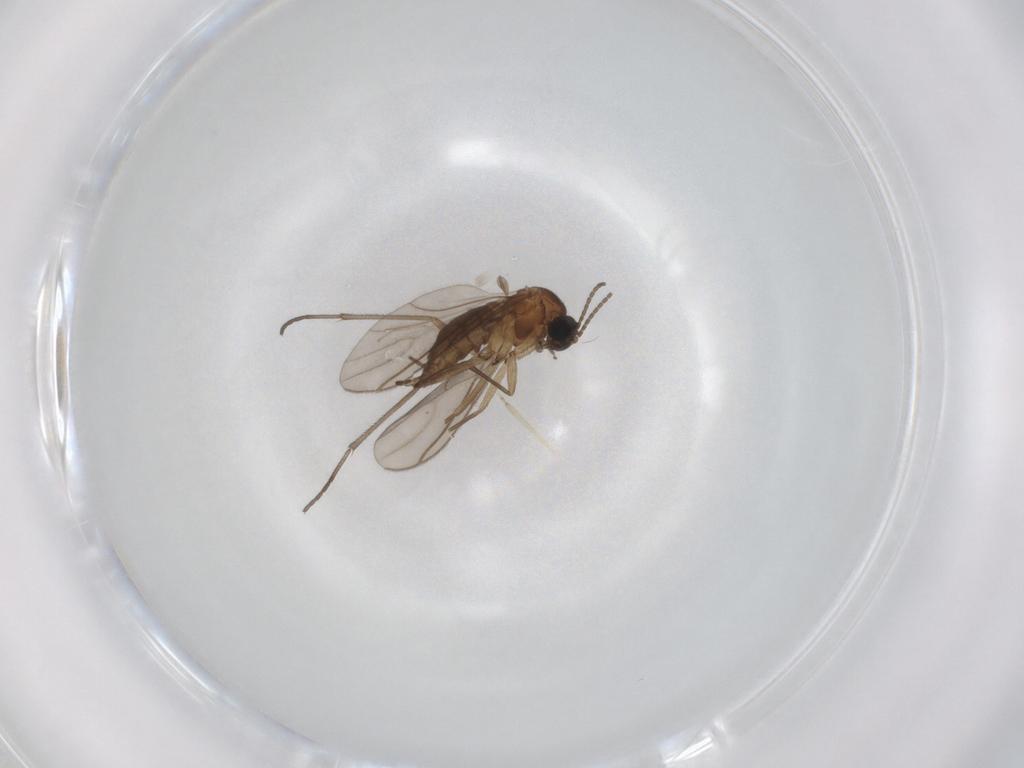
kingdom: Animalia
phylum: Arthropoda
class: Insecta
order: Diptera
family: Sciaridae
